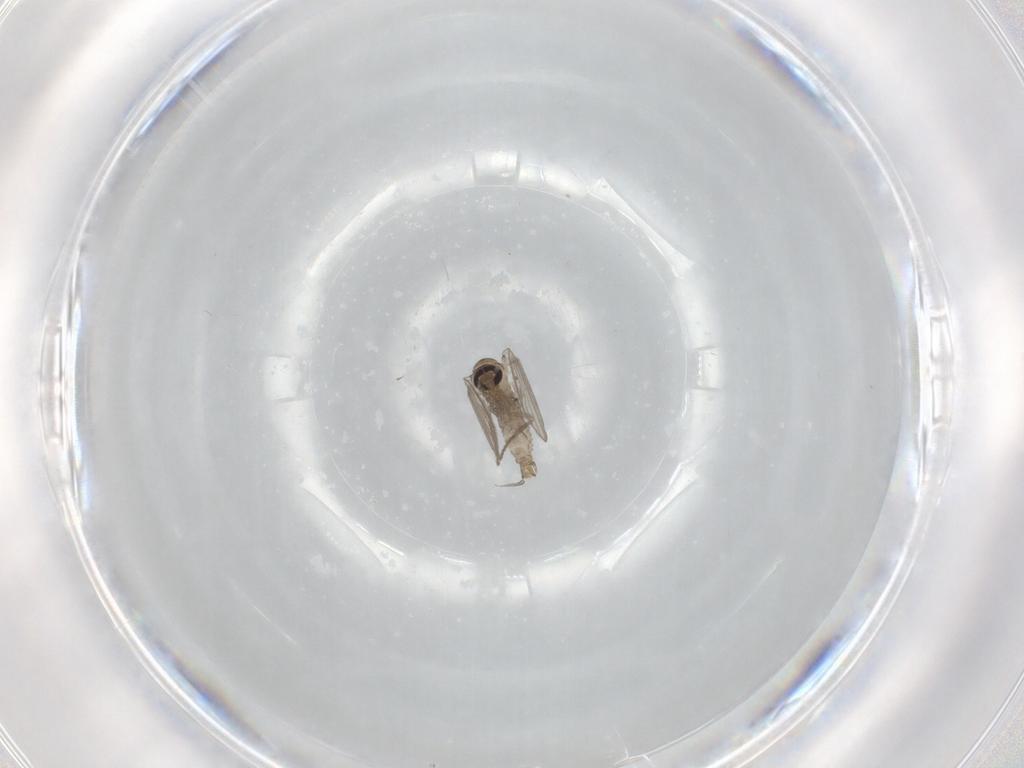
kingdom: Animalia
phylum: Arthropoda
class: Insecta
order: Diptera
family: Psychodidae
